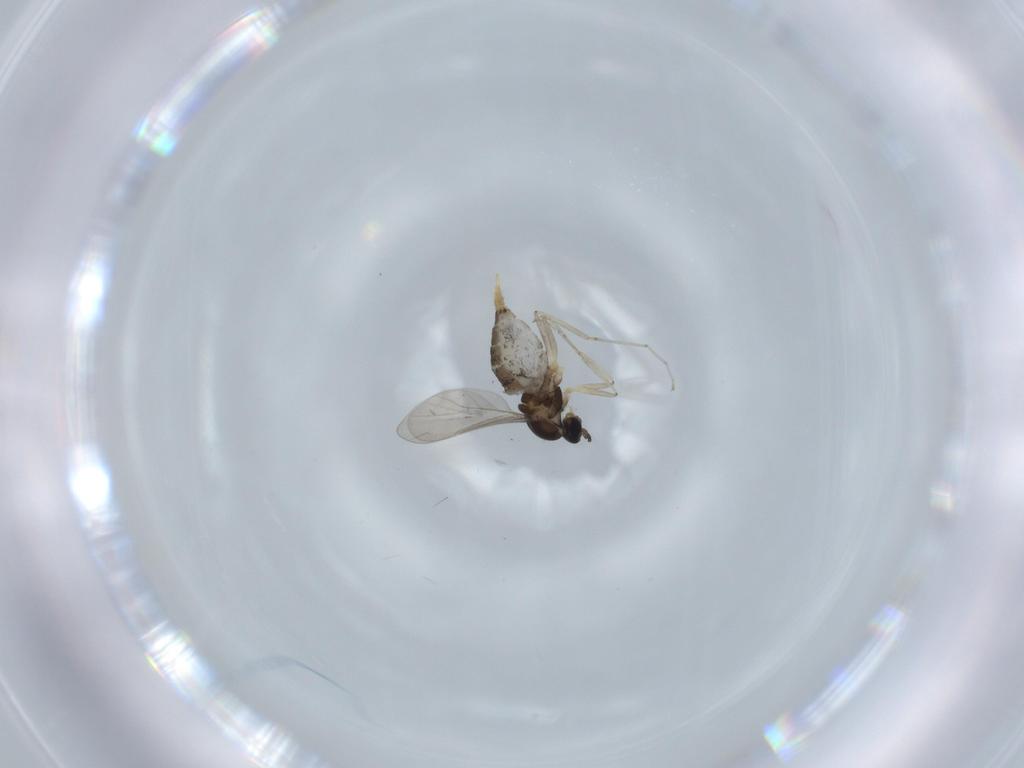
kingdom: Animalia
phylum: Arthropoda
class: Insecta
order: Diptera
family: Cecidomyiidae
